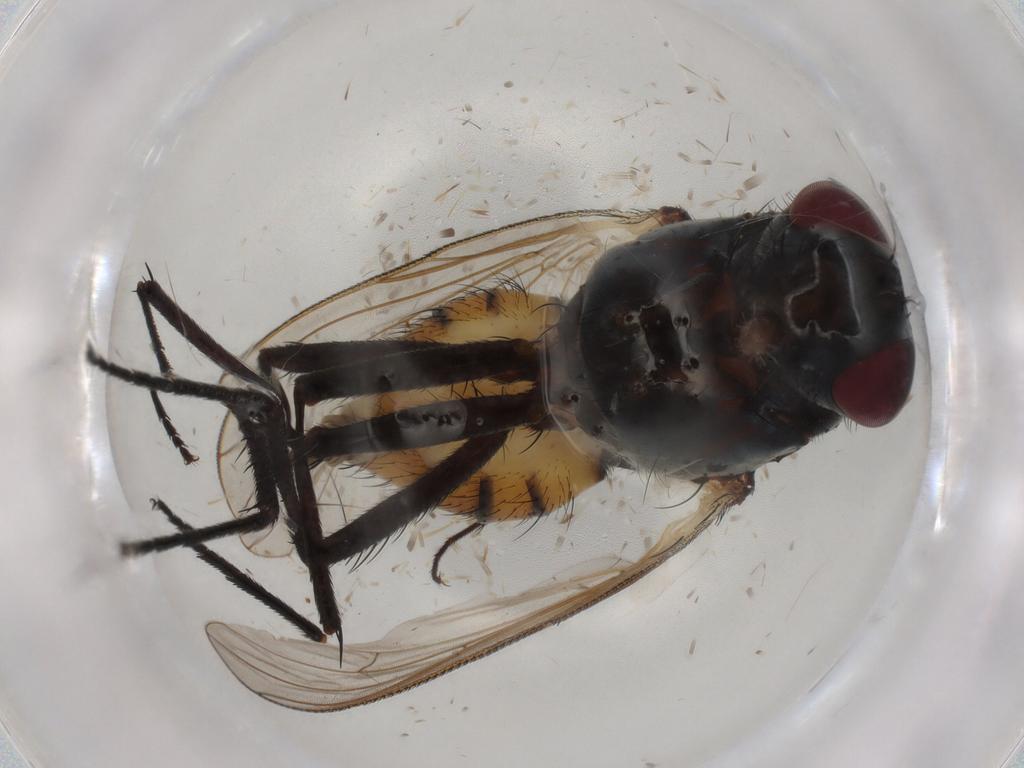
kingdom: Animalia
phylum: Arthropoda
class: Insecta
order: Diptera
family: Anthomyiidae
